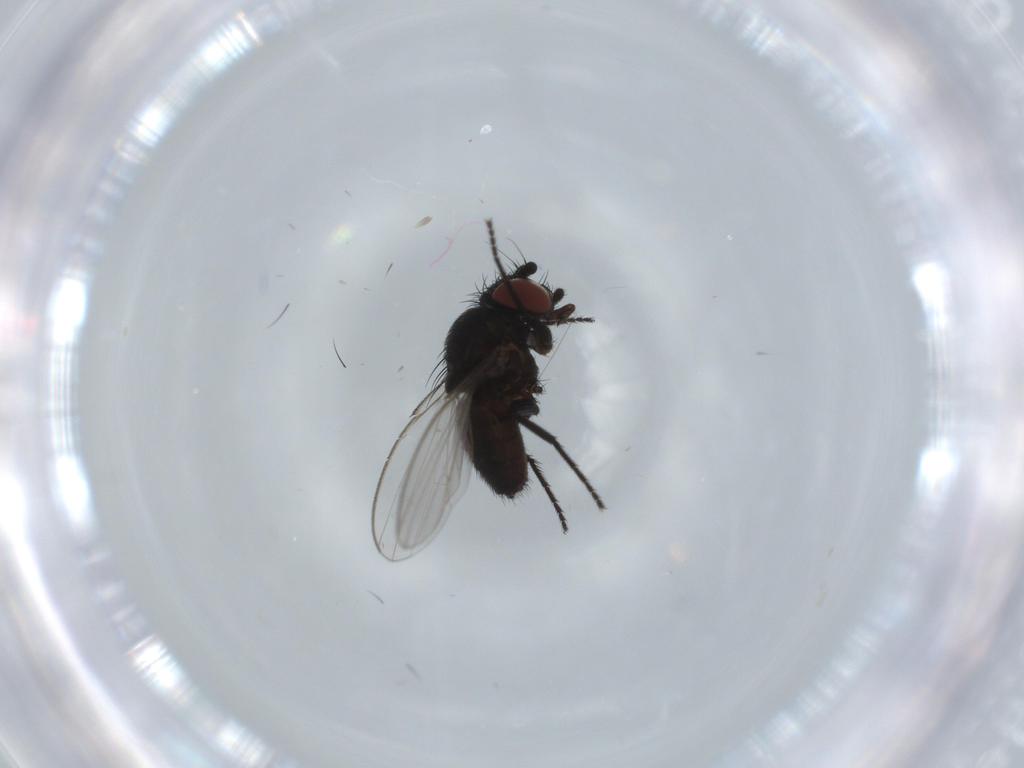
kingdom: Animalia
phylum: Arthropoda
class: Insecta
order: Diptera
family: Milichiidae
